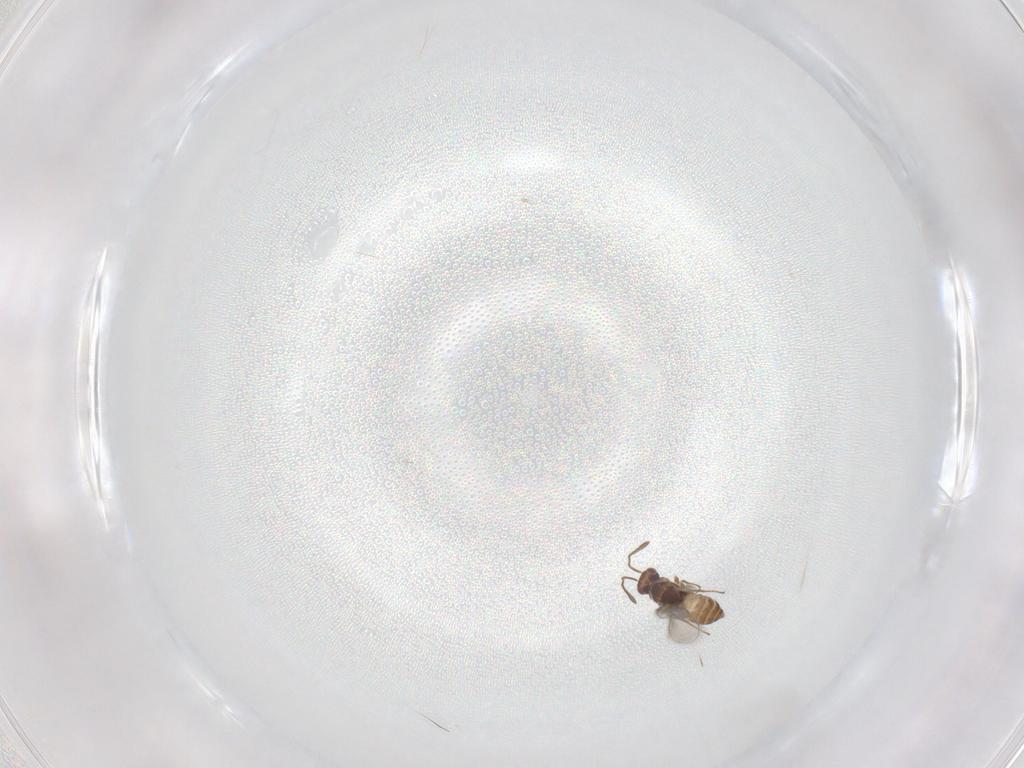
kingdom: Animalia
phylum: Arthropoda
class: Insecta
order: Hymenoptera
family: Mymaridae
